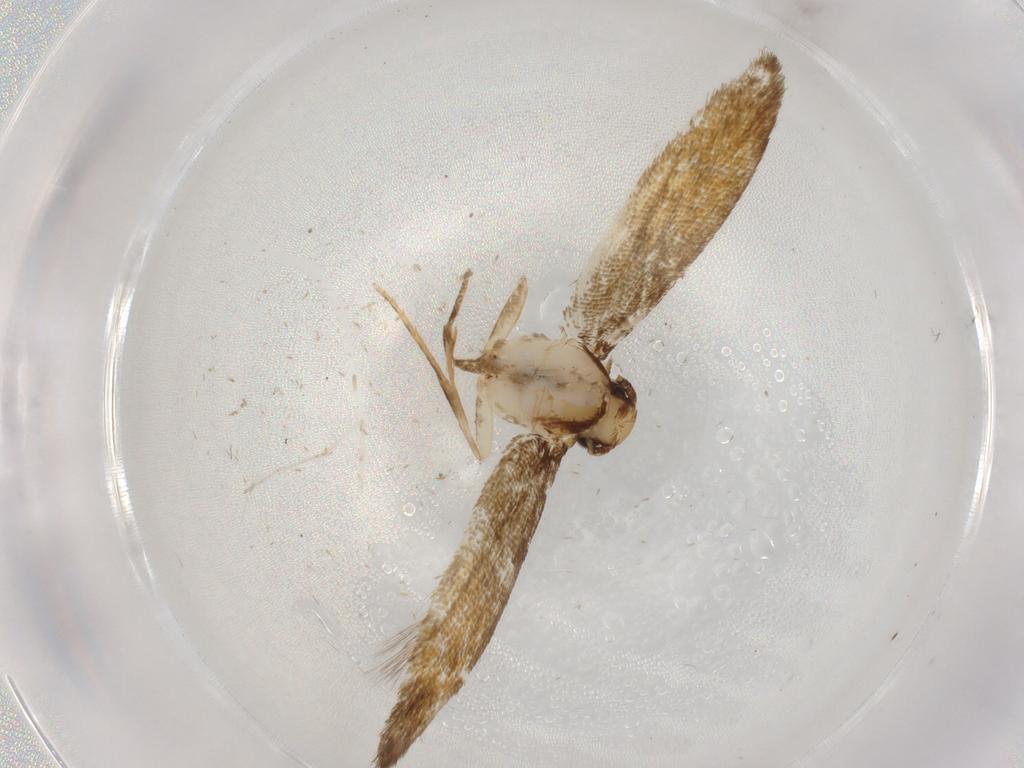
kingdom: Animalia
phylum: Arthropoda
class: Insecta
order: Lepidoptera
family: Tineidae
